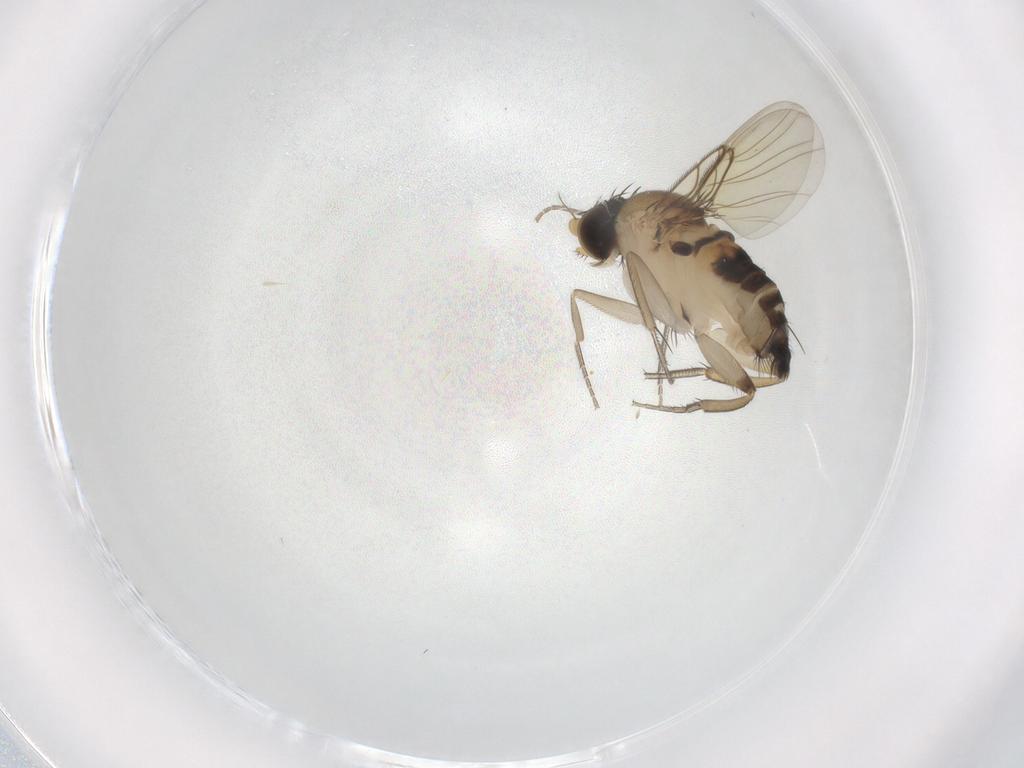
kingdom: Animalia
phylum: Arthropoda
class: Insecta
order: Diptera
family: Phoridae
